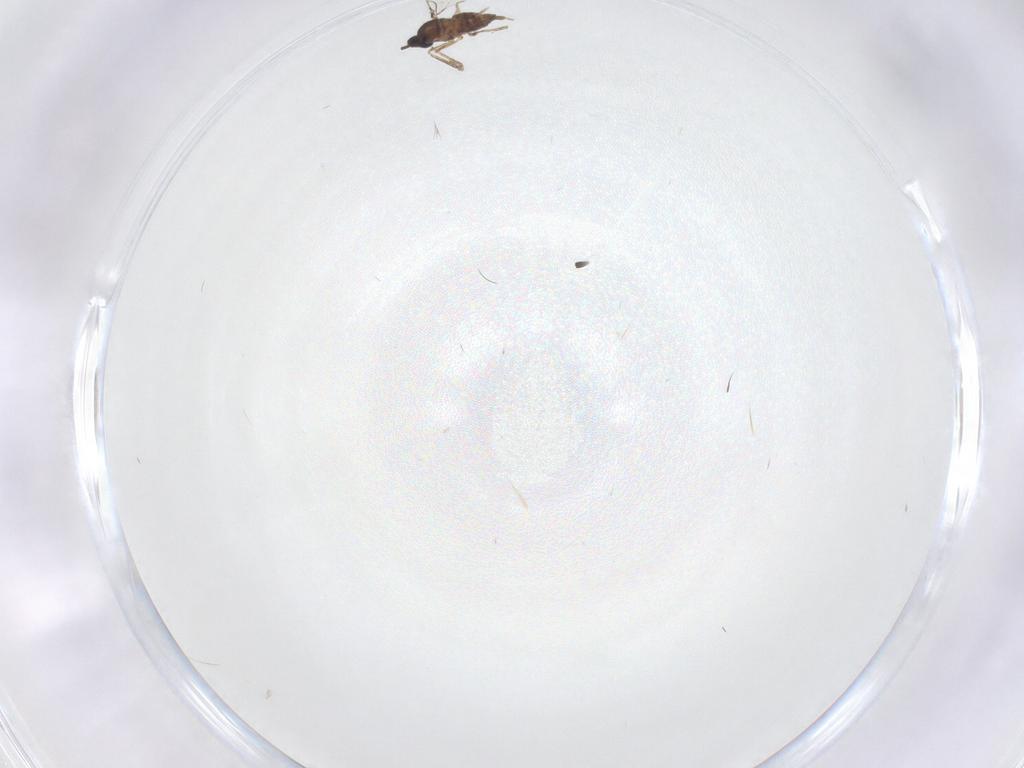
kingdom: Animalia
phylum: Arthropoda
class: Insecta
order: Diptera
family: Cecidomyiidae
